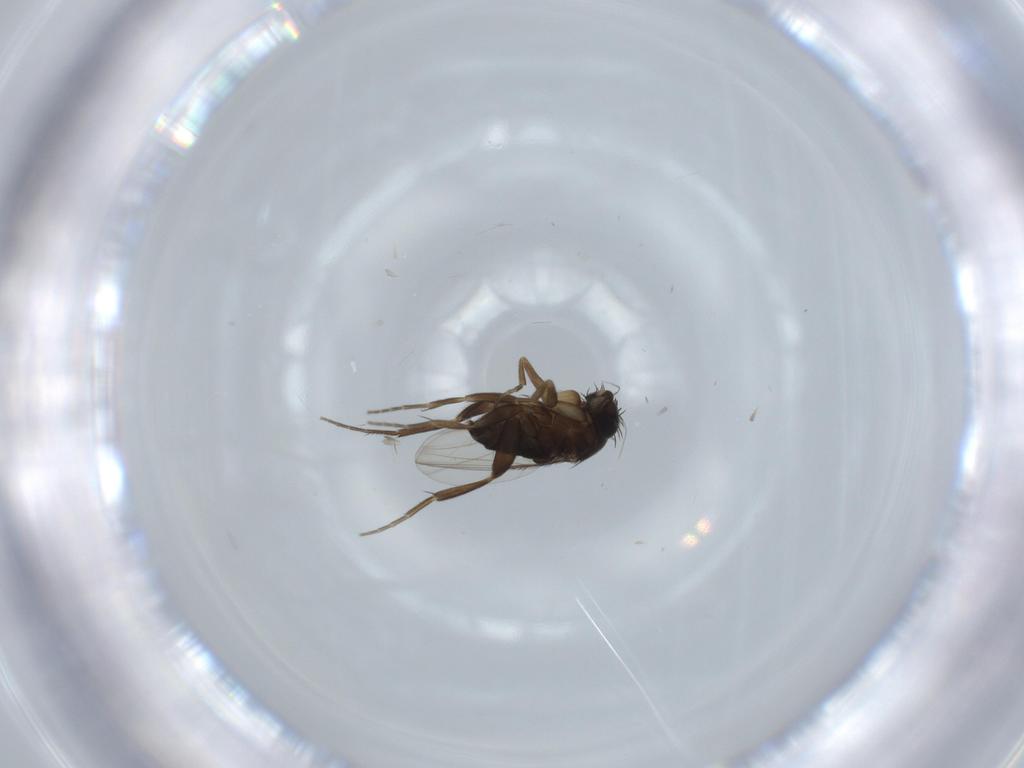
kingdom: Animalia
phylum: Arthropoda
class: Insecta
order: Diptera
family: Phoridae
